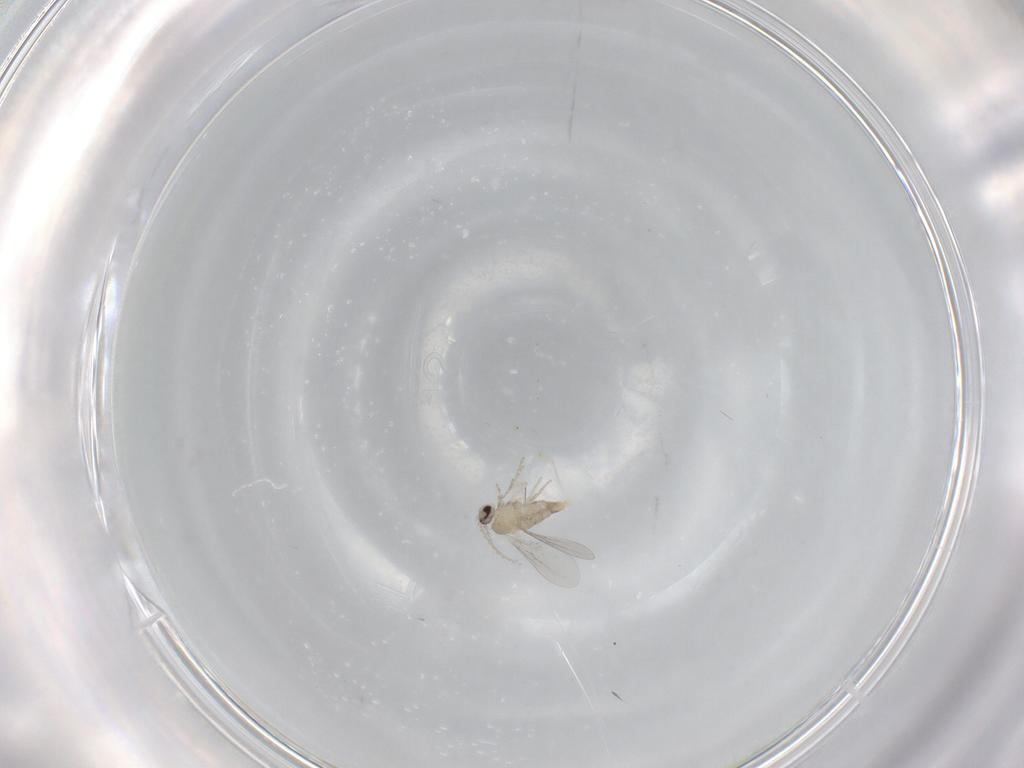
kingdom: Animalia
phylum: Arthropoda
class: Insecta
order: Diptera
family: Cecidomyiidae
